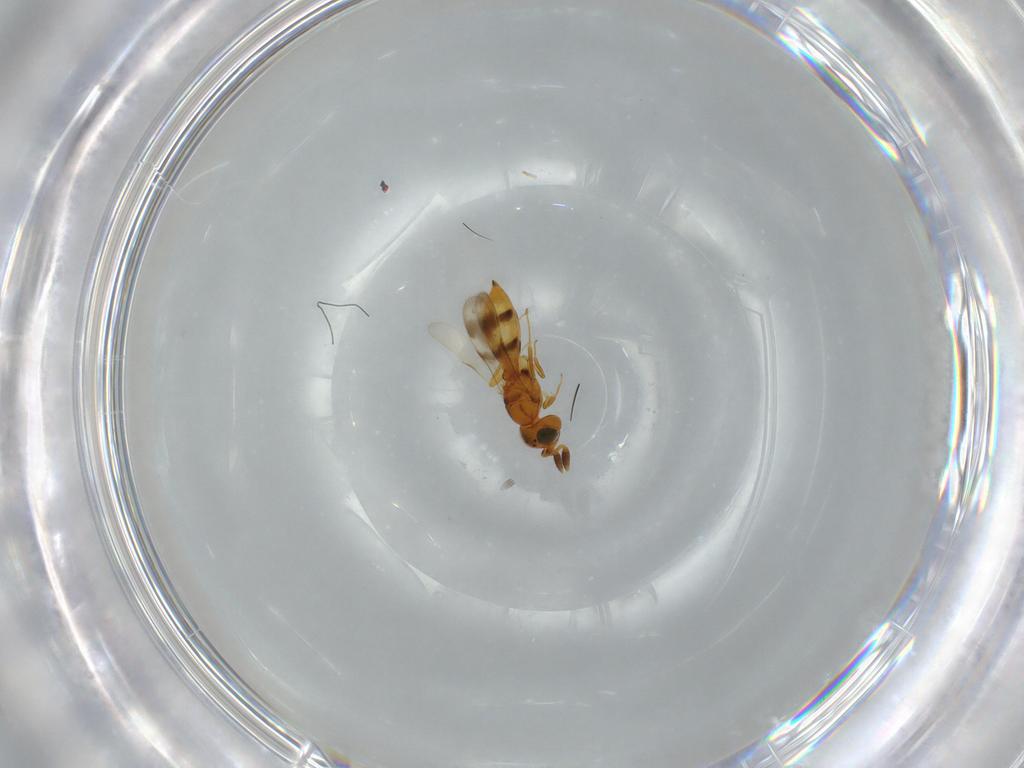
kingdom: Animalia
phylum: Arthropoda
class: Insecta
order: Hymenoptera
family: Scelionidae
